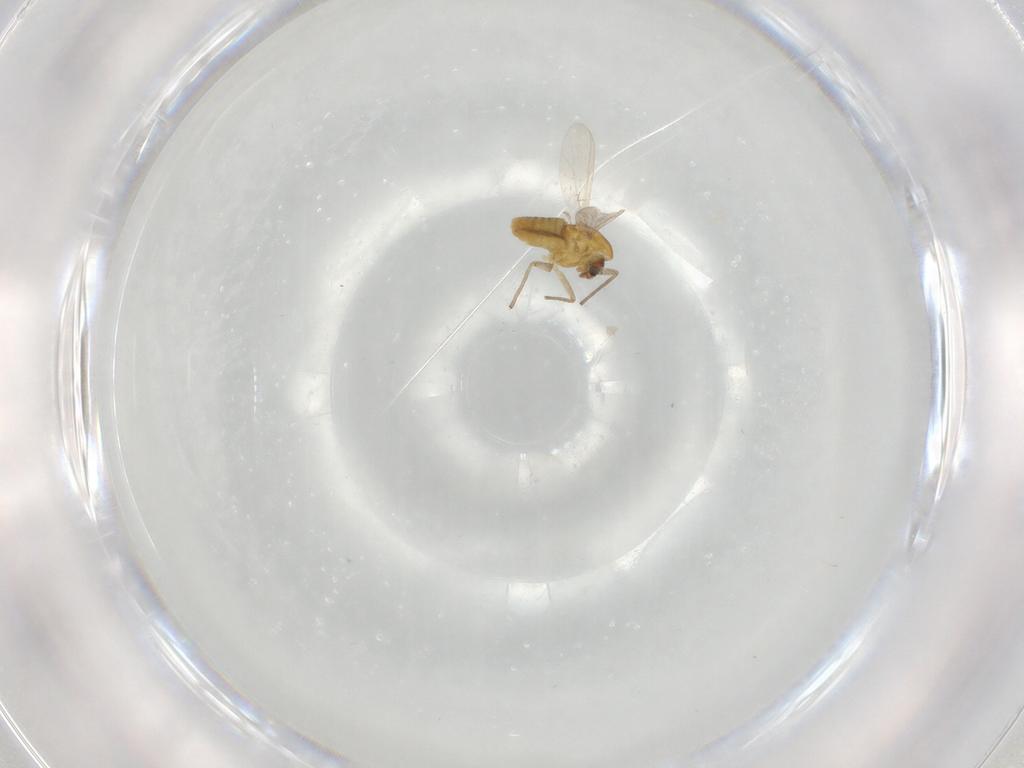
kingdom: Animalia
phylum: Arthropoda
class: Insecta
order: Diptera
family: Chironomidae
